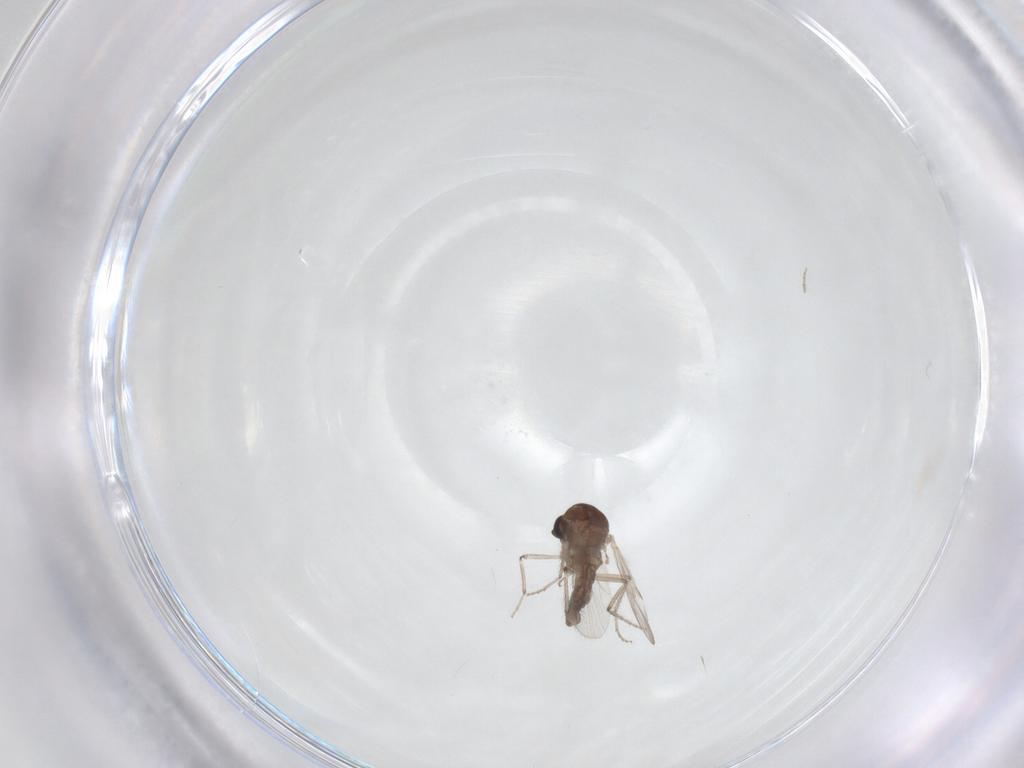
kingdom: Animalia
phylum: Arthropoda
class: Insecta
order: Diptera
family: Ceratopogonidae
